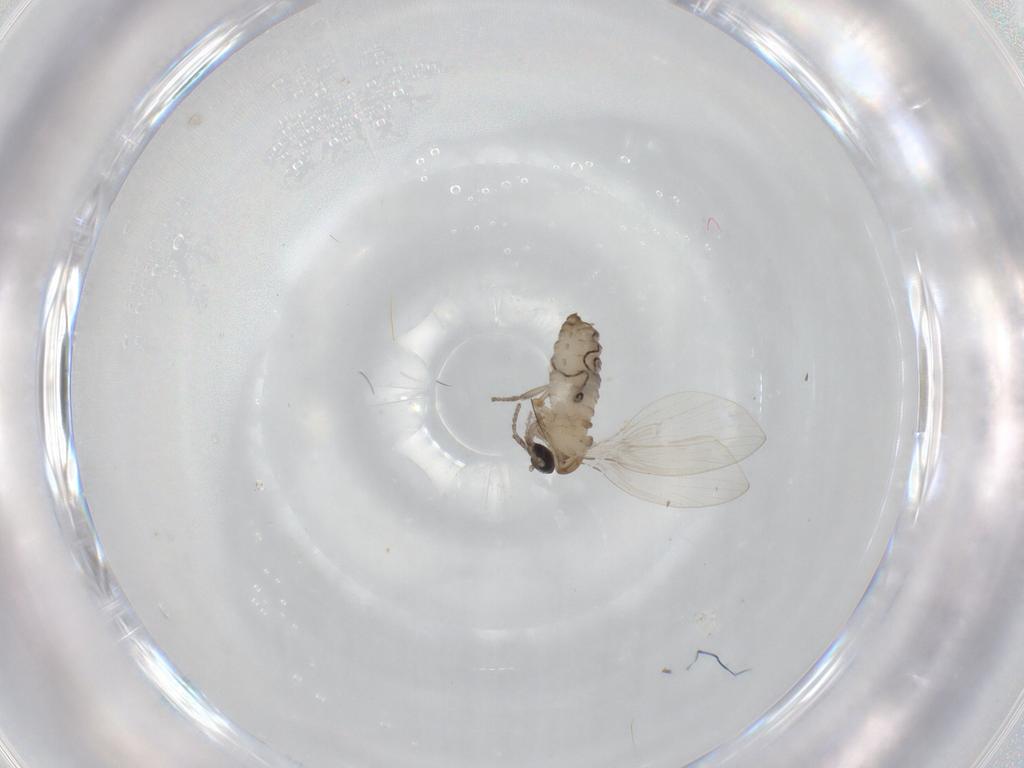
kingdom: Animalia
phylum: Arthropoda
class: Insecta
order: Diptera
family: Psychodidae
